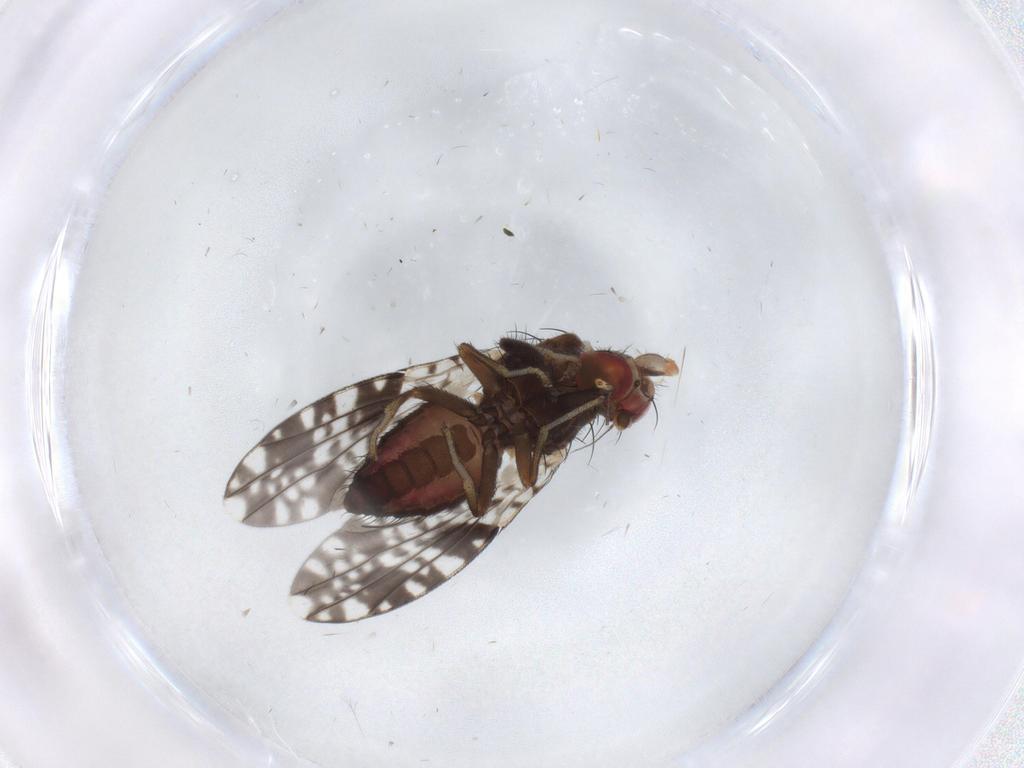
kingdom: Animalia
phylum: Arthropoda
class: Insecta
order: Diptera
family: Tephritidae
